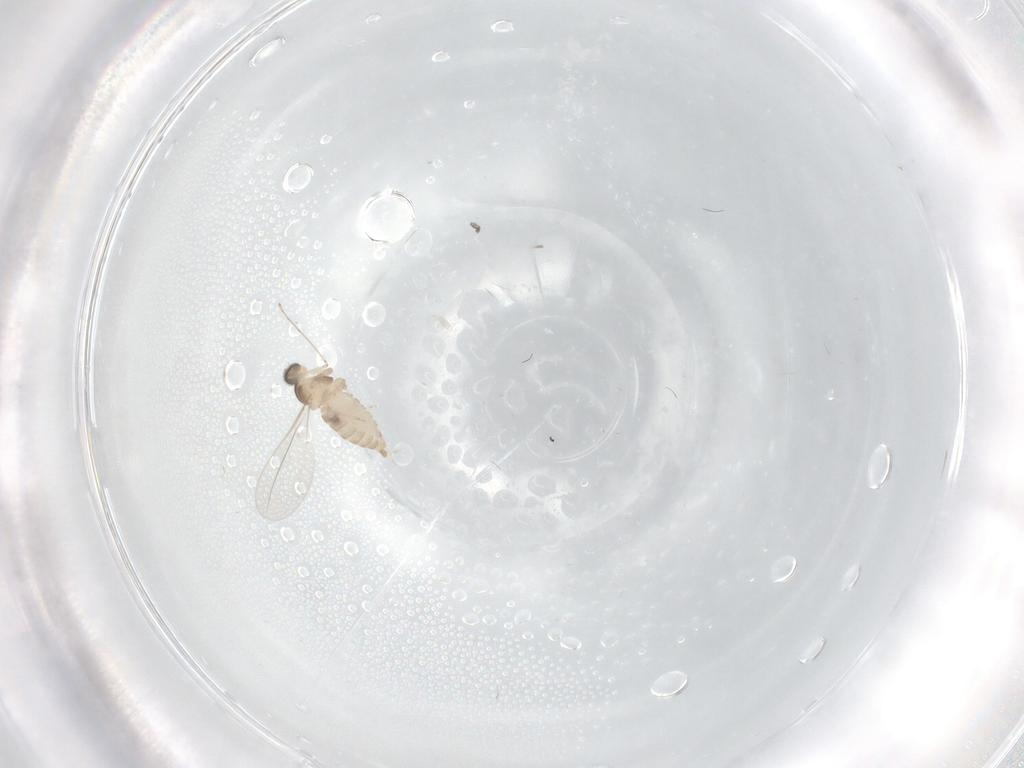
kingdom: Animalia
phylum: Arthropoda
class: Insecta
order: Diptera
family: Cecidomyiidae
